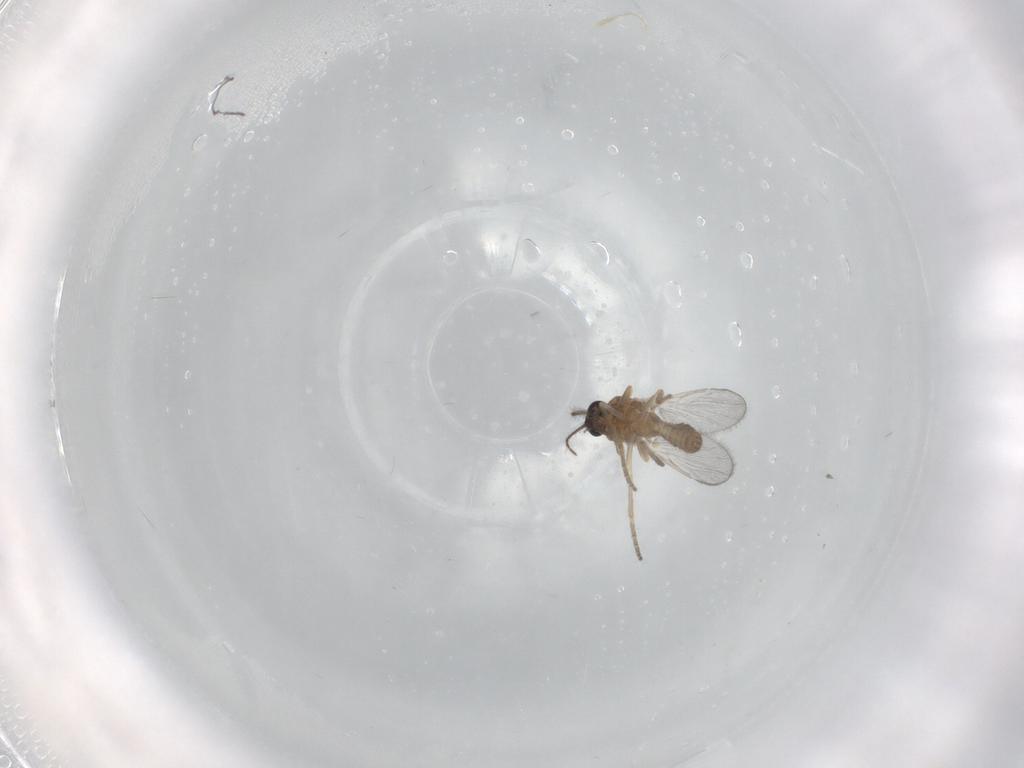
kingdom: Animalia
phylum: Arthropoda
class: Insecta
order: Diptera
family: Ceratopogonidae
